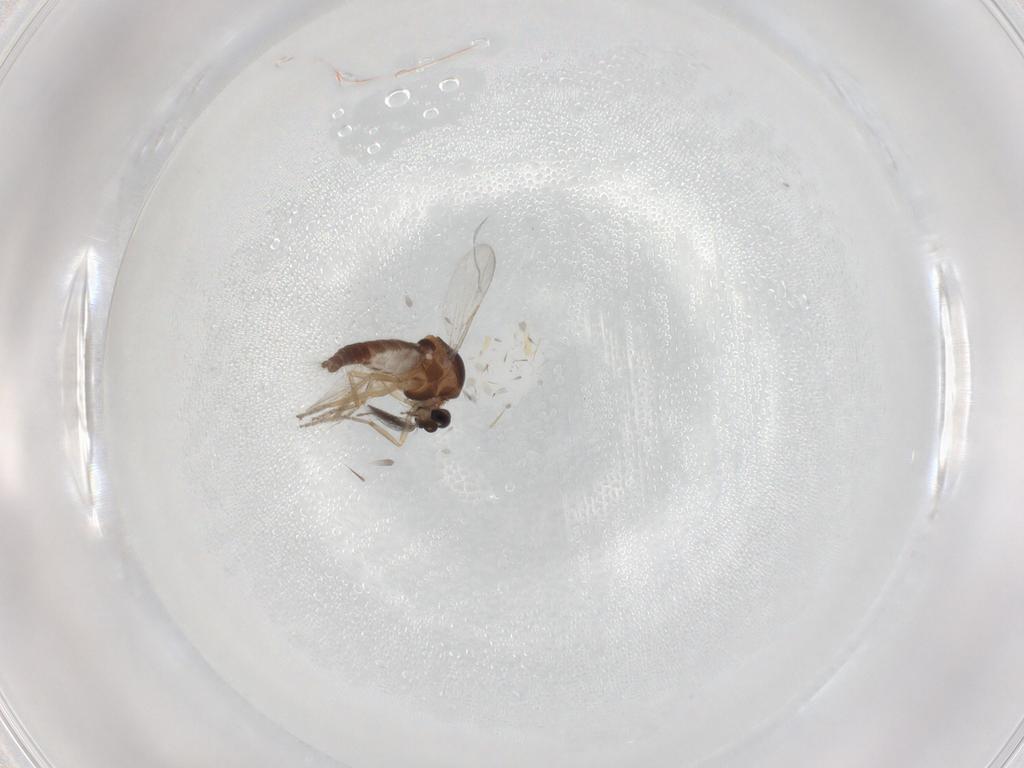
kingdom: Animalia
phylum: Arthropoda
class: Insecta
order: Diptera
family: Ceratopogonidae
